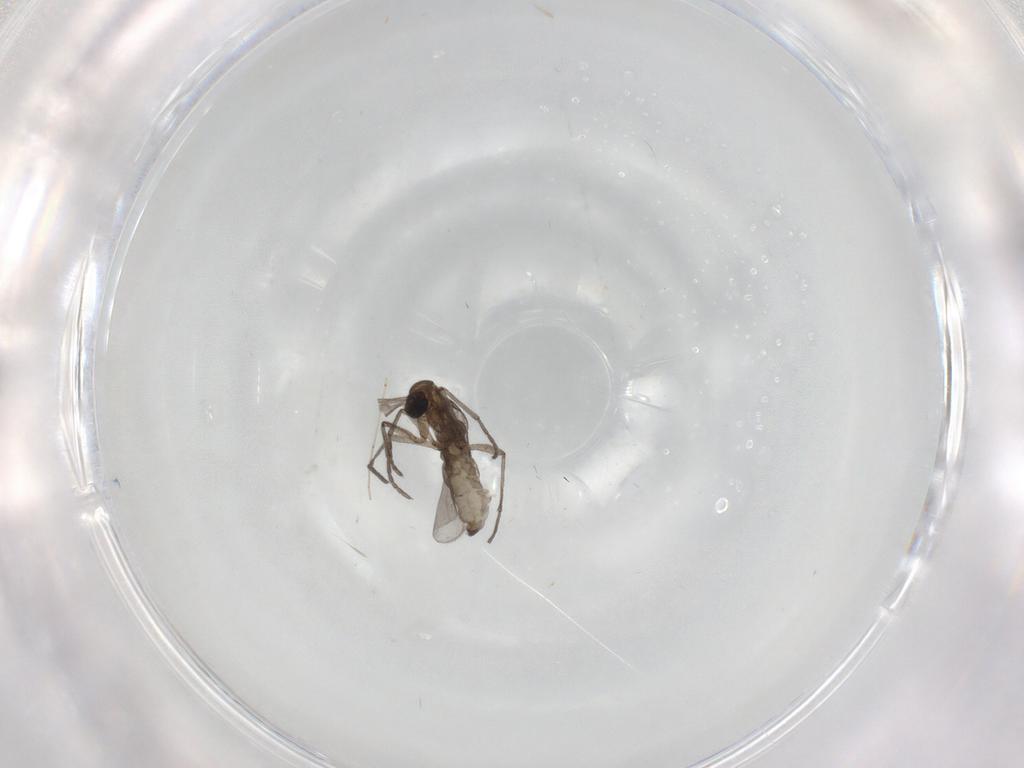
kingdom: Animalia
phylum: Arthropoda
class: Insecta
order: Diptera
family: Sciaridae
